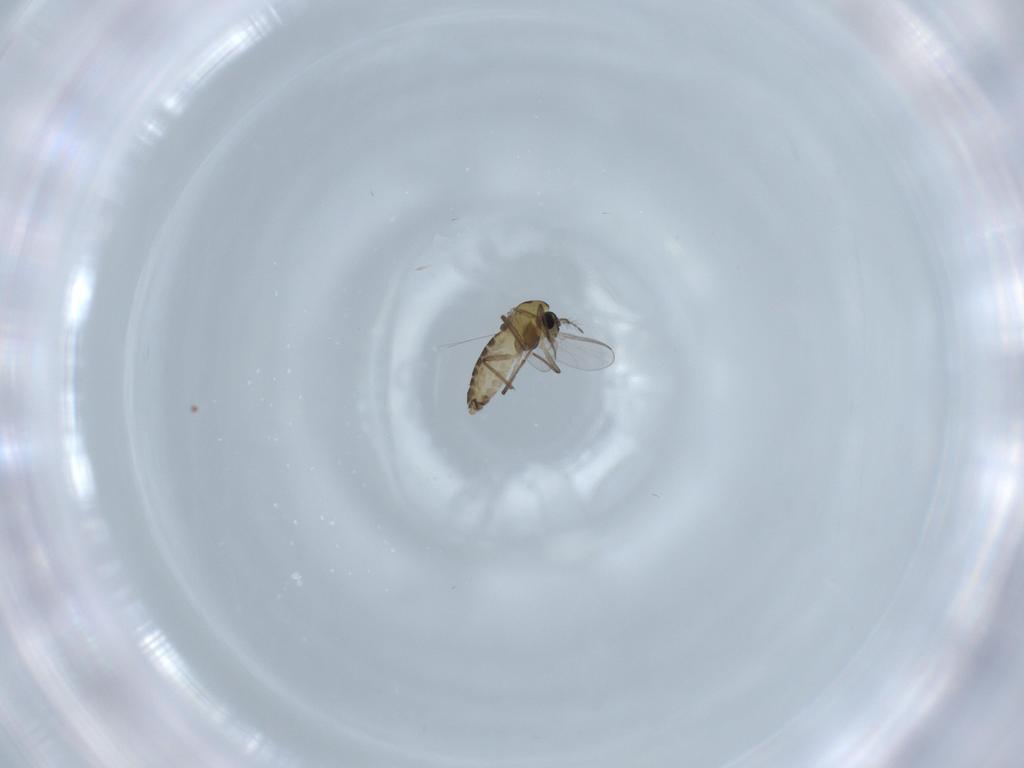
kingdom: Animalia
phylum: Arthropoda
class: Insecta
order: Diptera
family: Chironomidae
